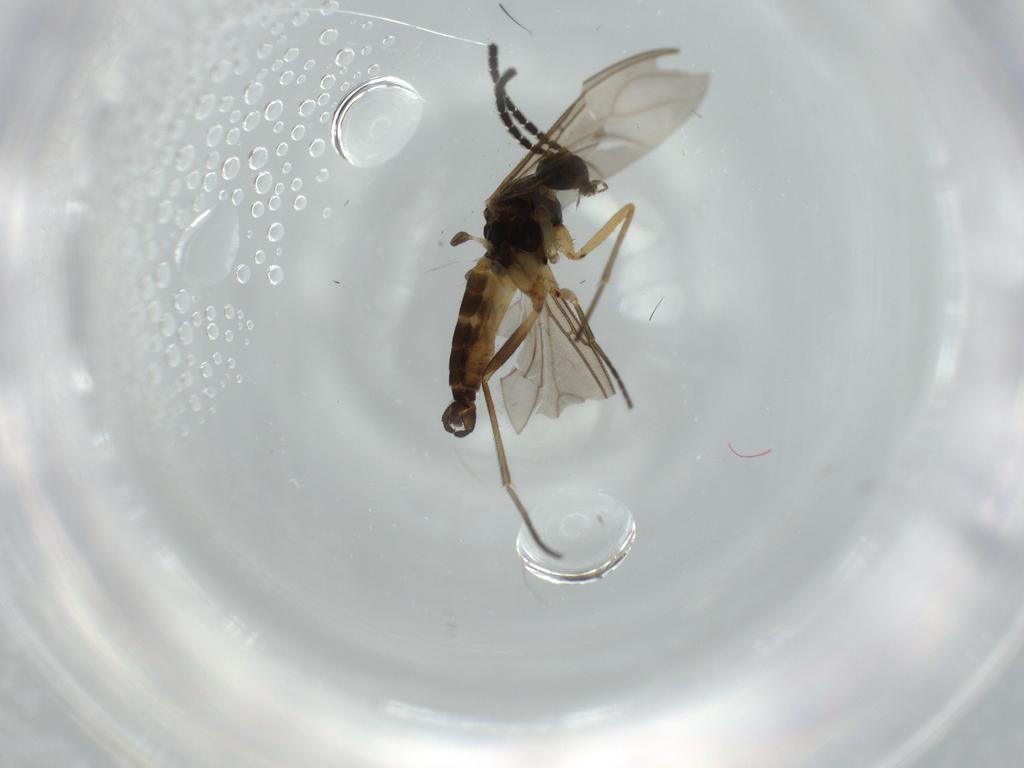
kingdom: Animalia
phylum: Arthropoda
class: Insecta
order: Diptera
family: Sciaridae
